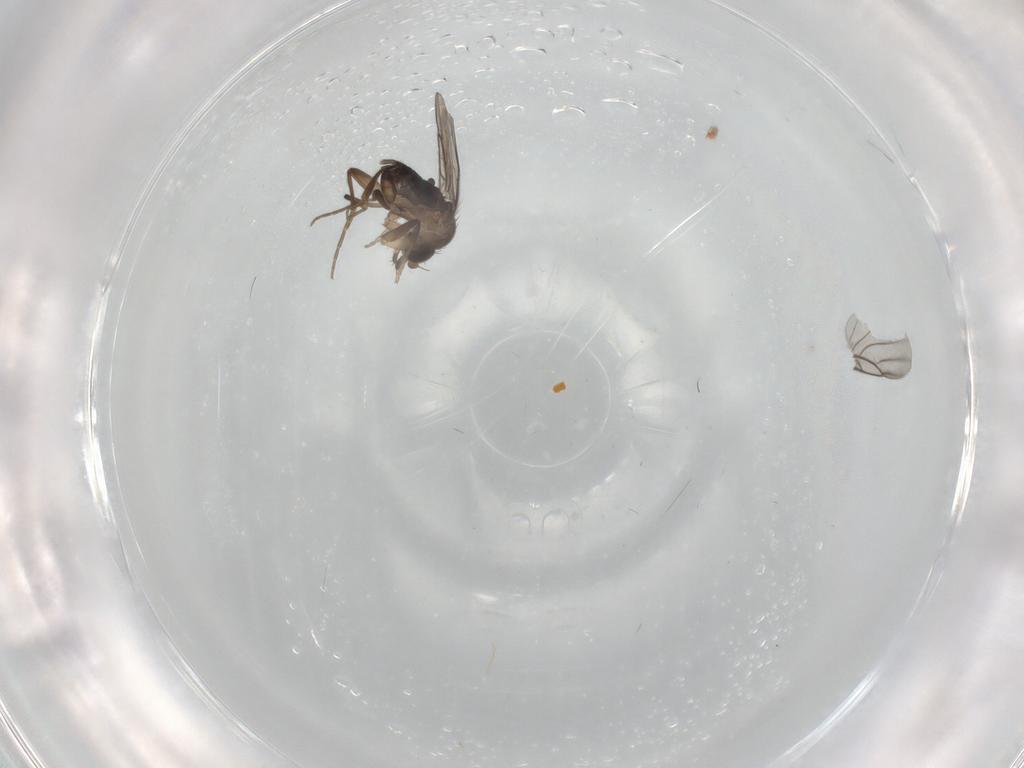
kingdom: Animalia
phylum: Arthropoda
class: Insecta
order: Diptera
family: Phoridae
